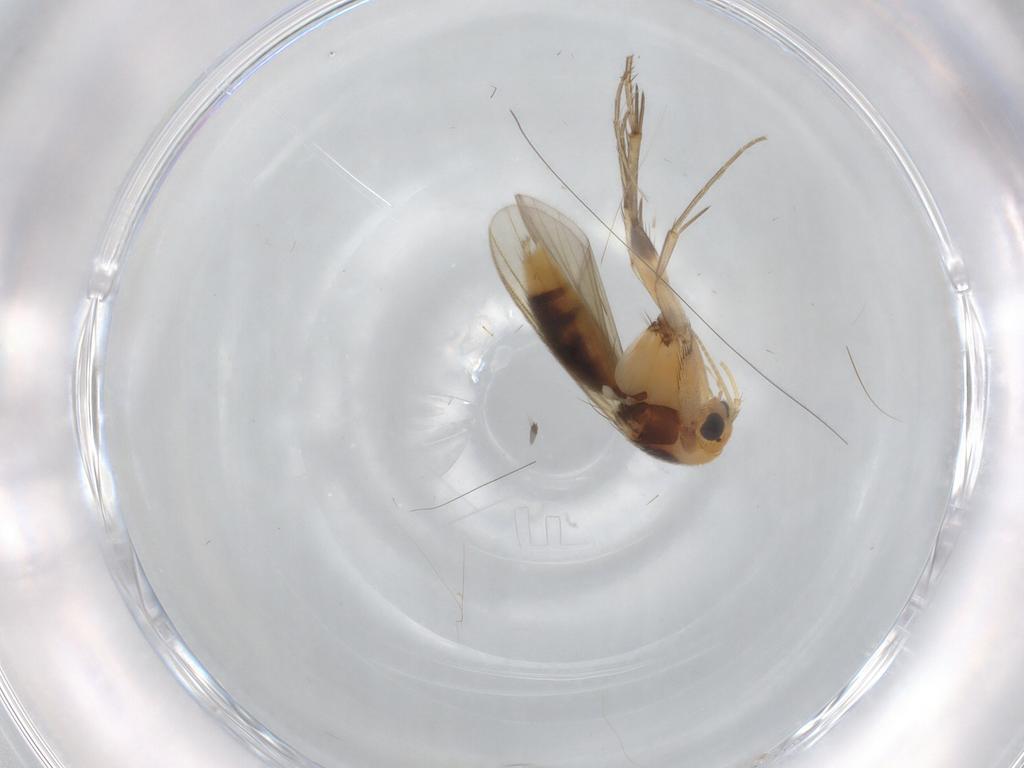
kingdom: Animalia
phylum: Arthropoda
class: Insecta
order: Diptera
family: Mycetophilidae
